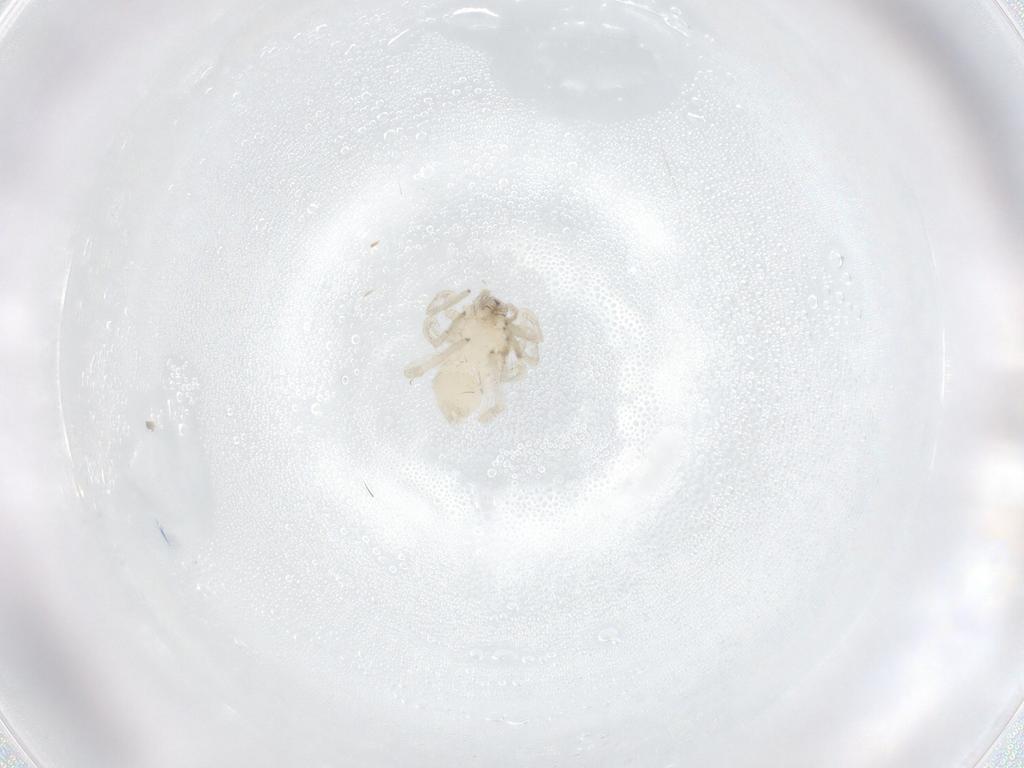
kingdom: Animalia
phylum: Arthropoda
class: Arachnida
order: Araneae
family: Gnaphosidae
